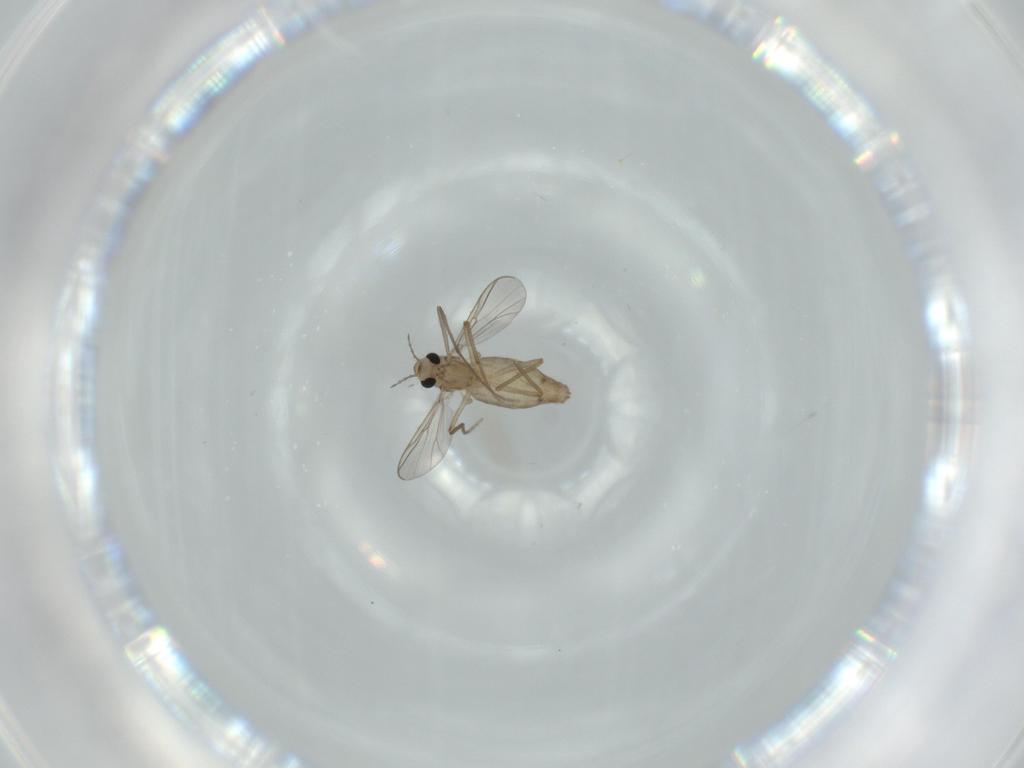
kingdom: Animalia
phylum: Arthropoda
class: Insecta
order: Diptera
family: Chironomidae
